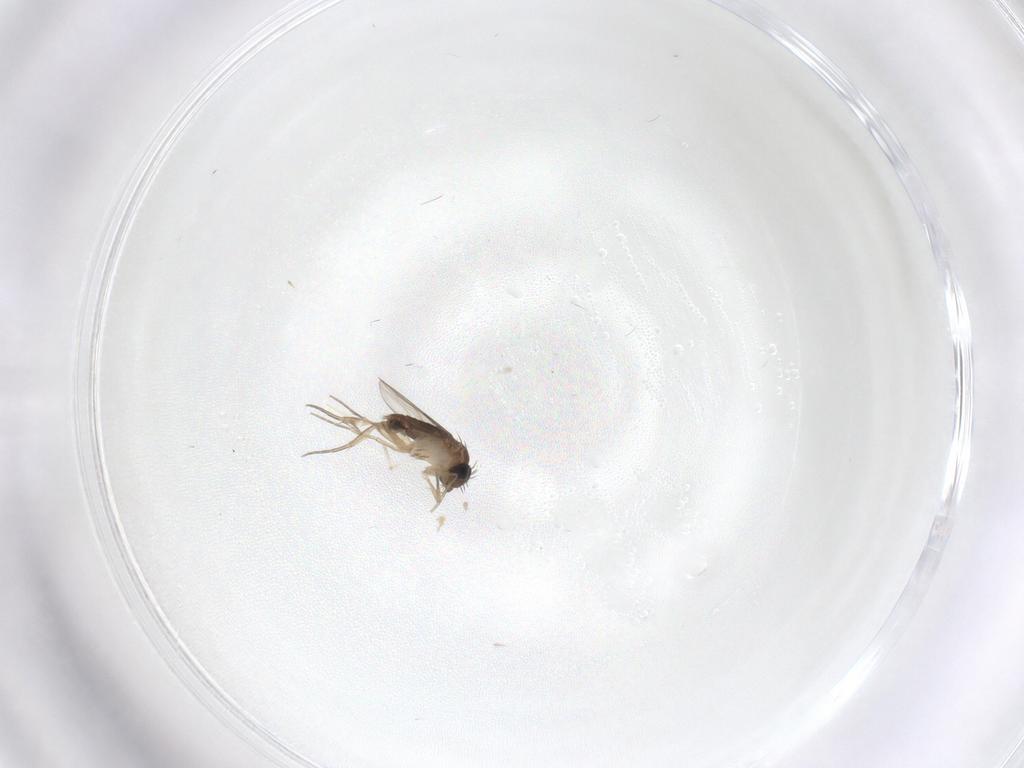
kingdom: Animalia
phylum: Arthropoda
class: Insecta
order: Diptera
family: Phoridae
